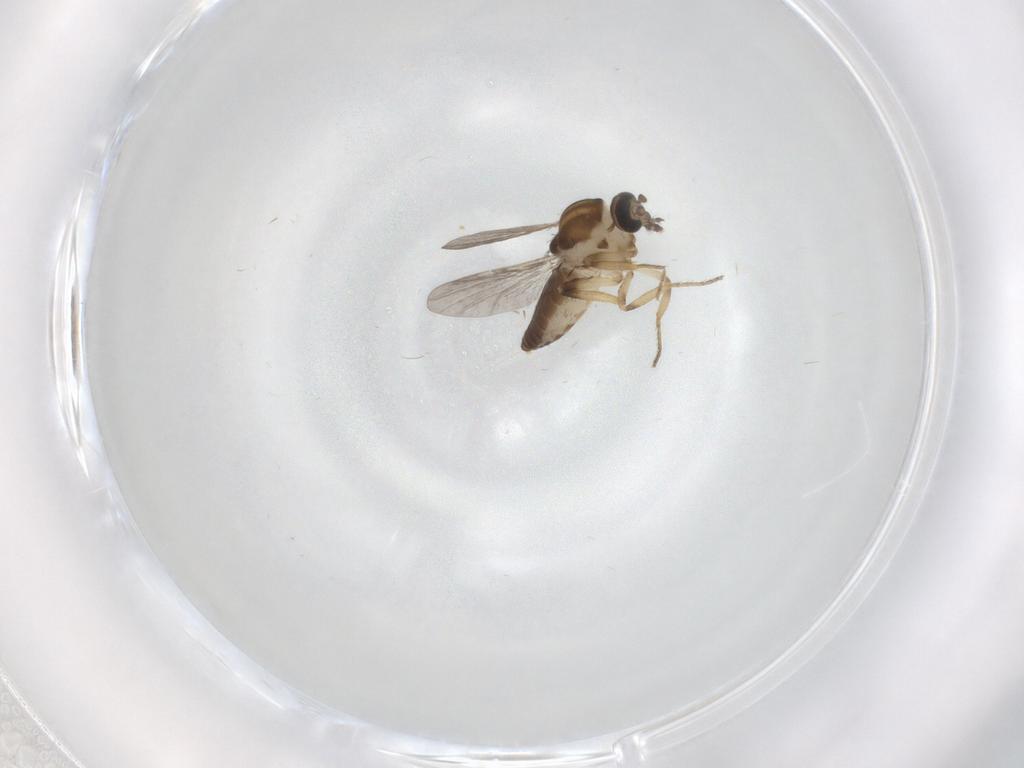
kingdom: Animalia
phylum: Arthropoda
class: Insecta
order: Diptera
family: Ceratopogonidae
